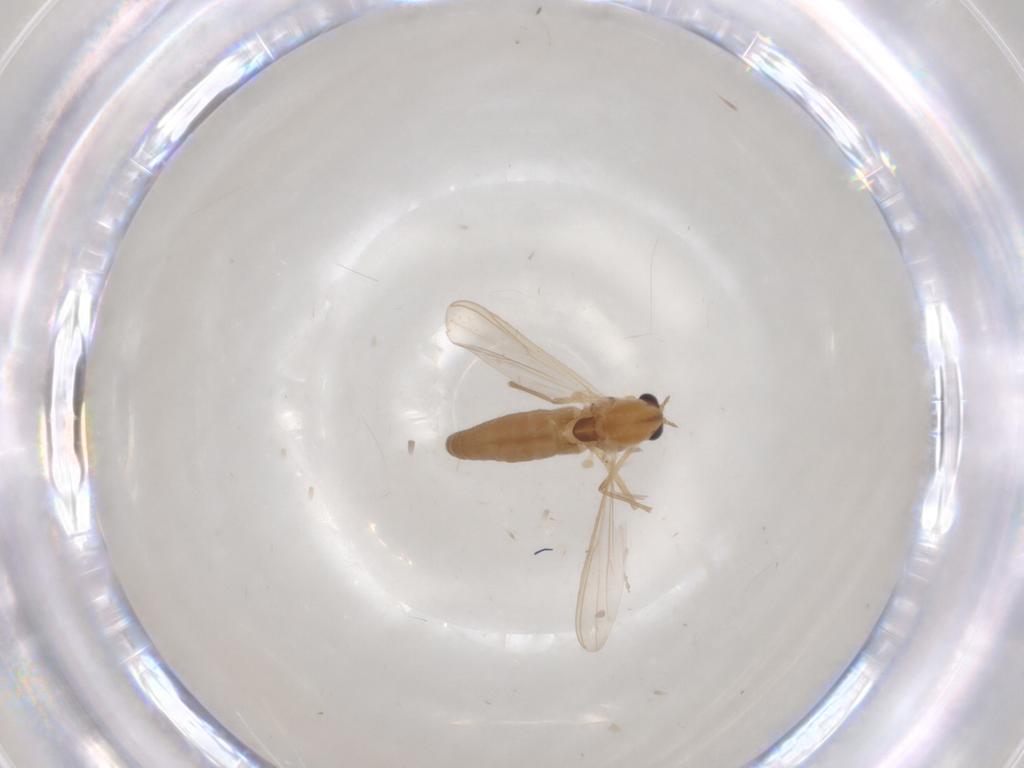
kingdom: Animalia
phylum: Arthropoda
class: Insecta
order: Diptera
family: Chironomidae
